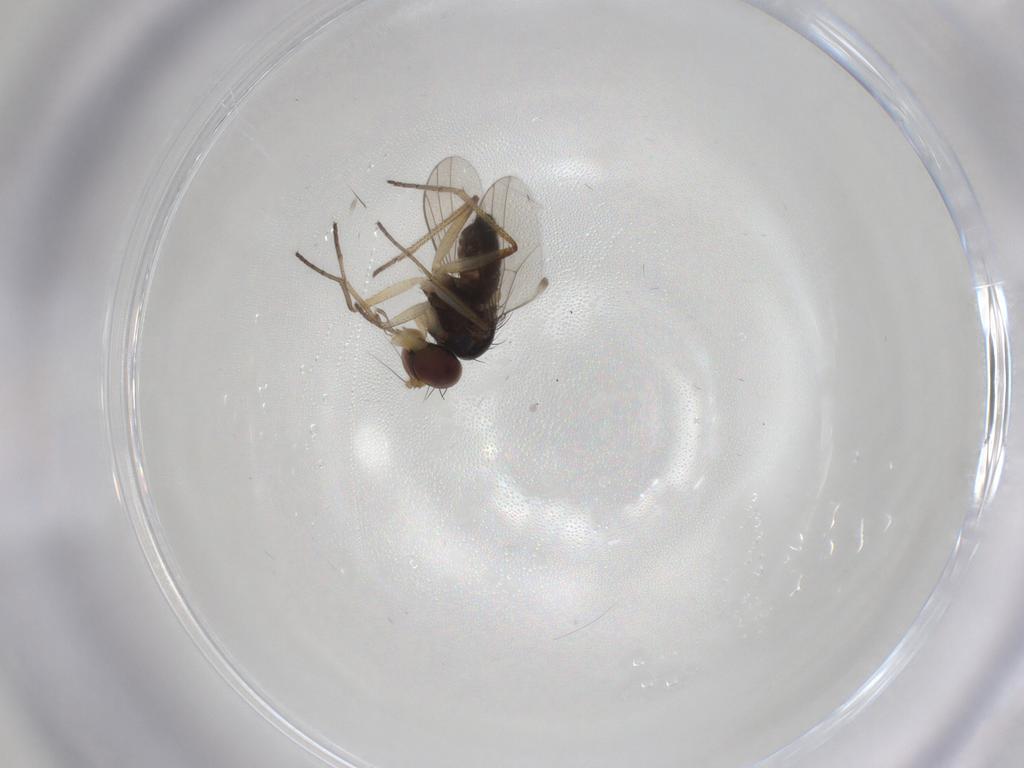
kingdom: Animalia
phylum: Arthropoda
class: Insecta
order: Diptera
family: Dolichopodidae
